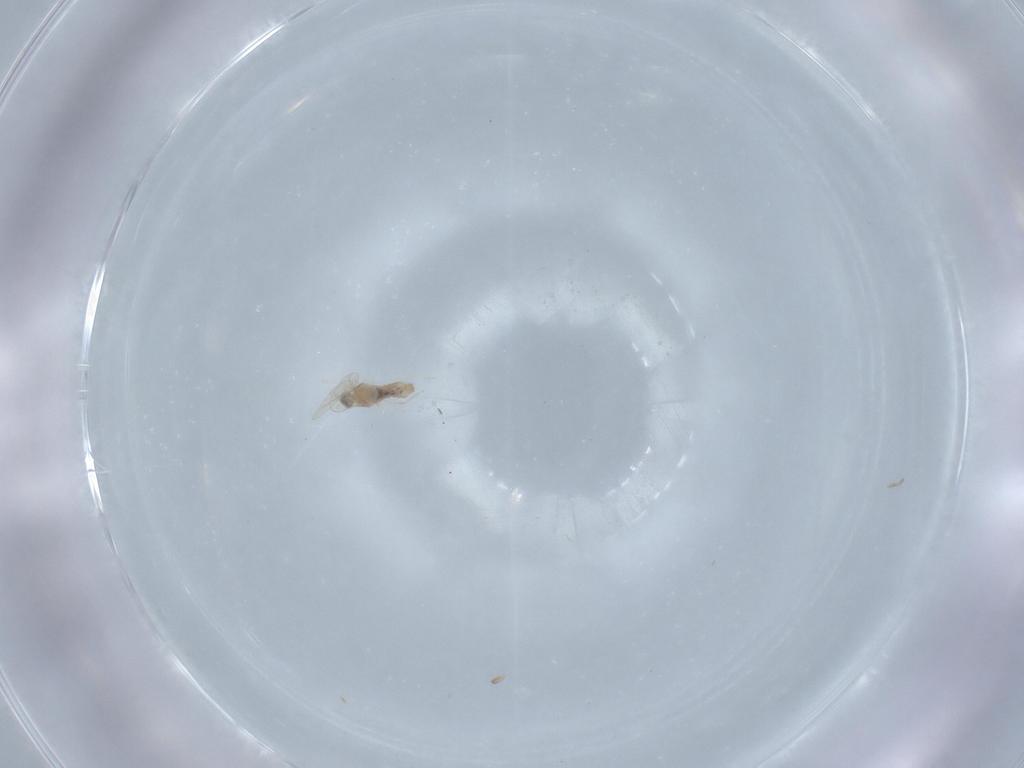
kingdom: Animalia
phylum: Arthropoda
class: Insecta
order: Diptera
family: Cecidomyiidae
